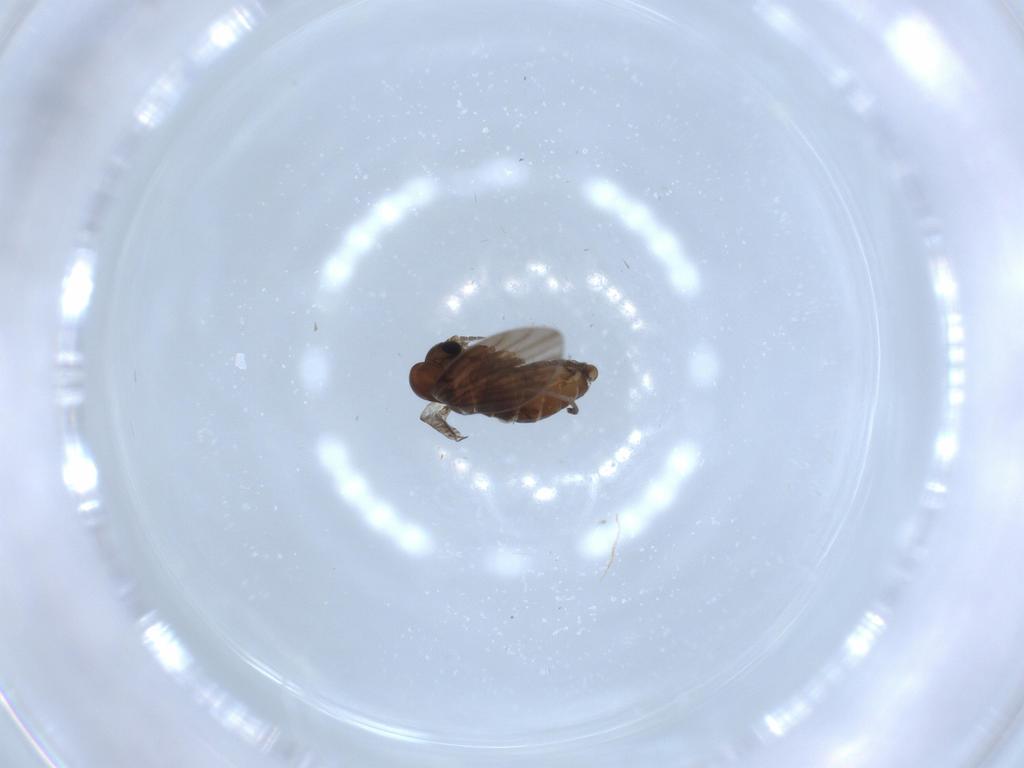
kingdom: Animalia
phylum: Arthropoda
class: Insecta
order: Diptera
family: Psychodidae
